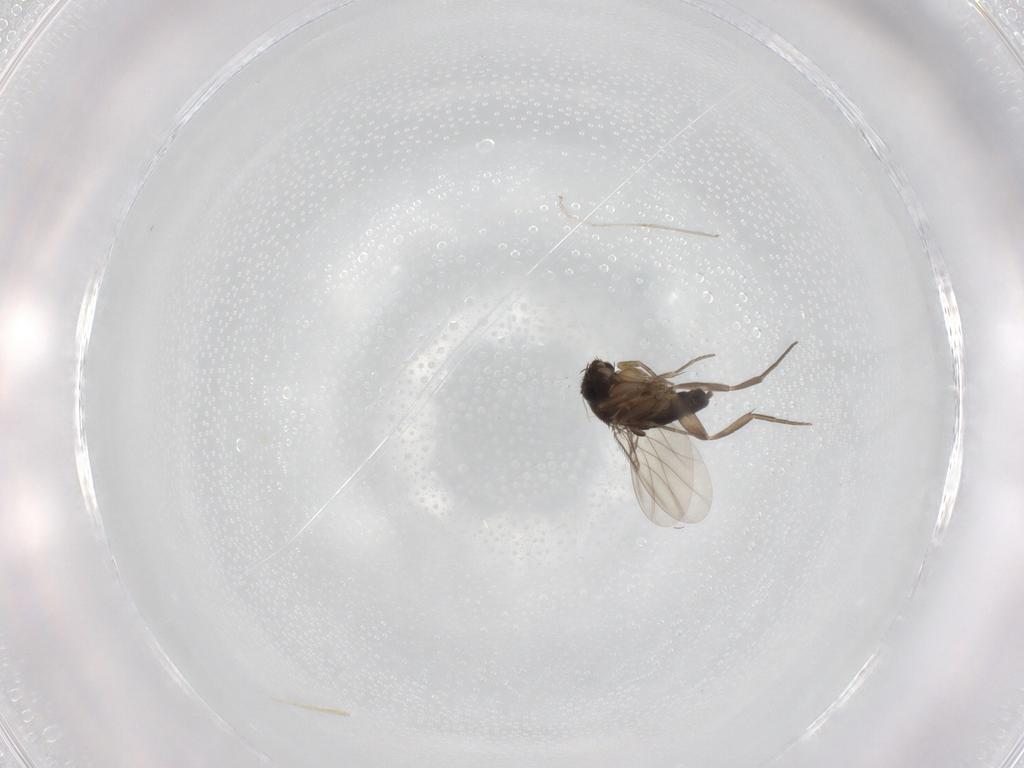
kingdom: Animalia
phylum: Arthropoda
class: Insecta
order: Diptera
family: Phoridae
